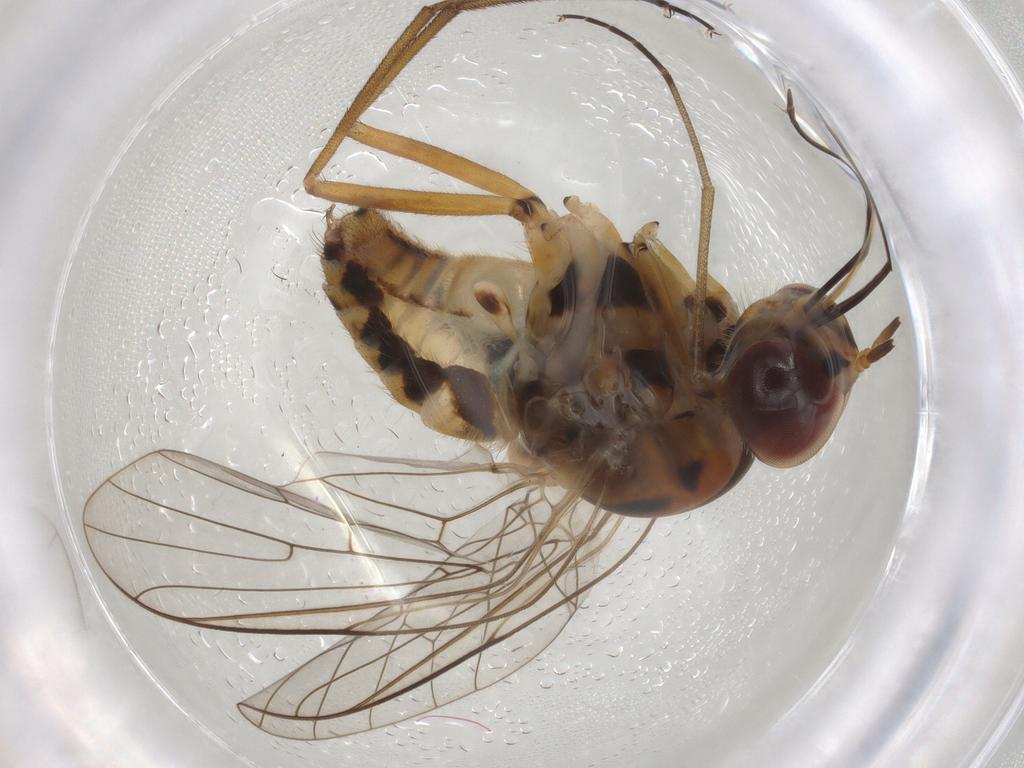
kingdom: Animalia
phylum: Arthropoda
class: Insecta
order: Diptera
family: Bombyliidae
